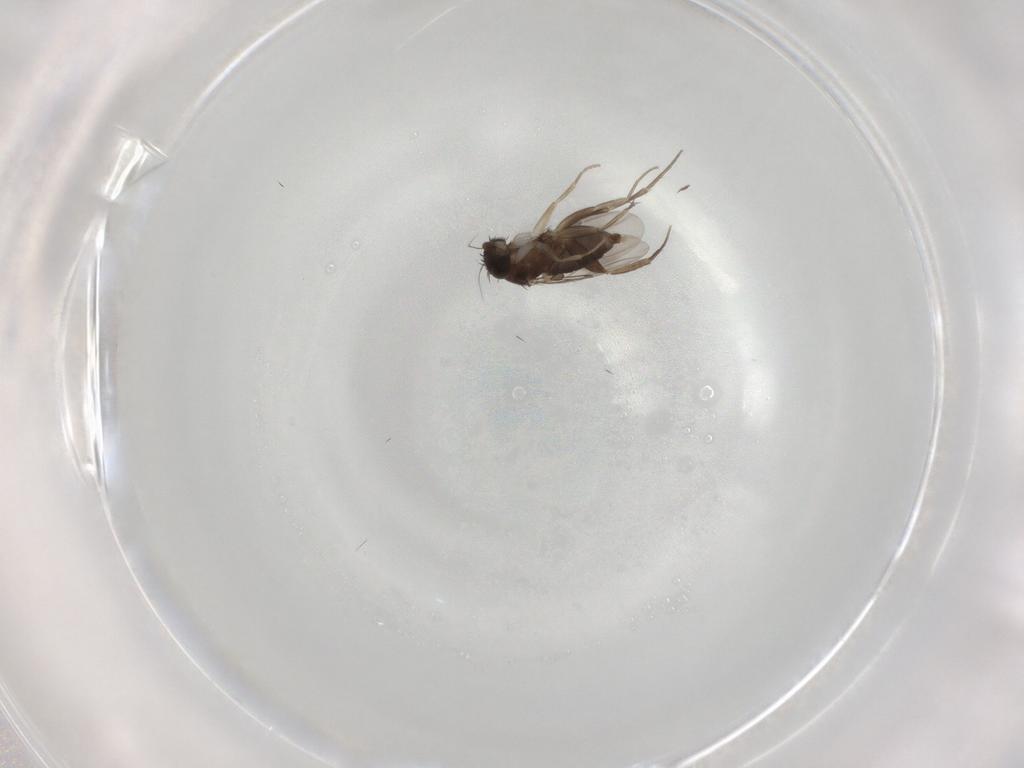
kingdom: Animalia
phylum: Arthropoda
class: Insecta
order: Diptera
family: Phoridae
